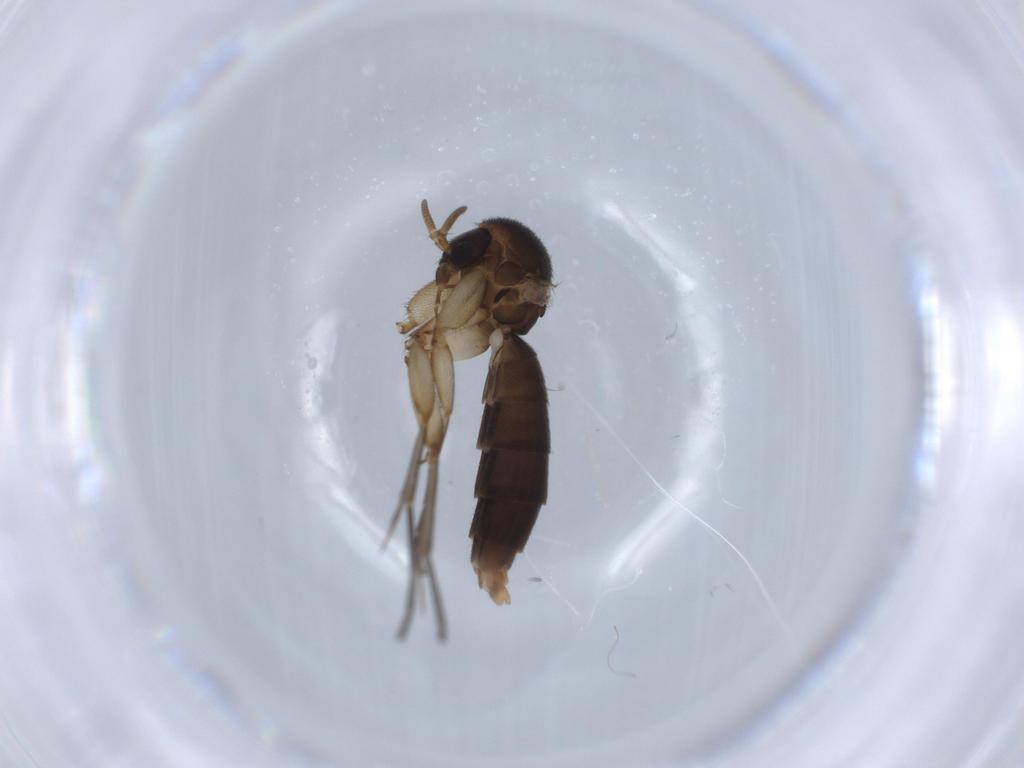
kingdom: Animalia
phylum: Arthropoda
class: Insecta
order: Diptera
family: Mycetophilidae
